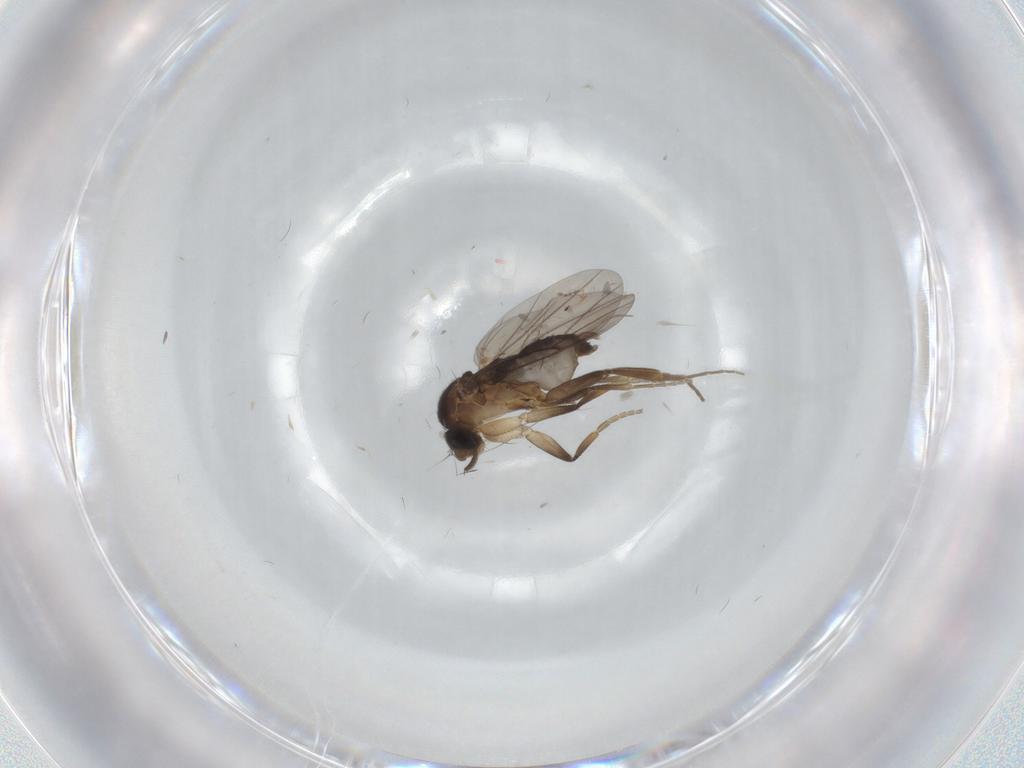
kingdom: Animalia
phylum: Arthropoda
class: Insecta
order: Diptera
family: Phoridae
